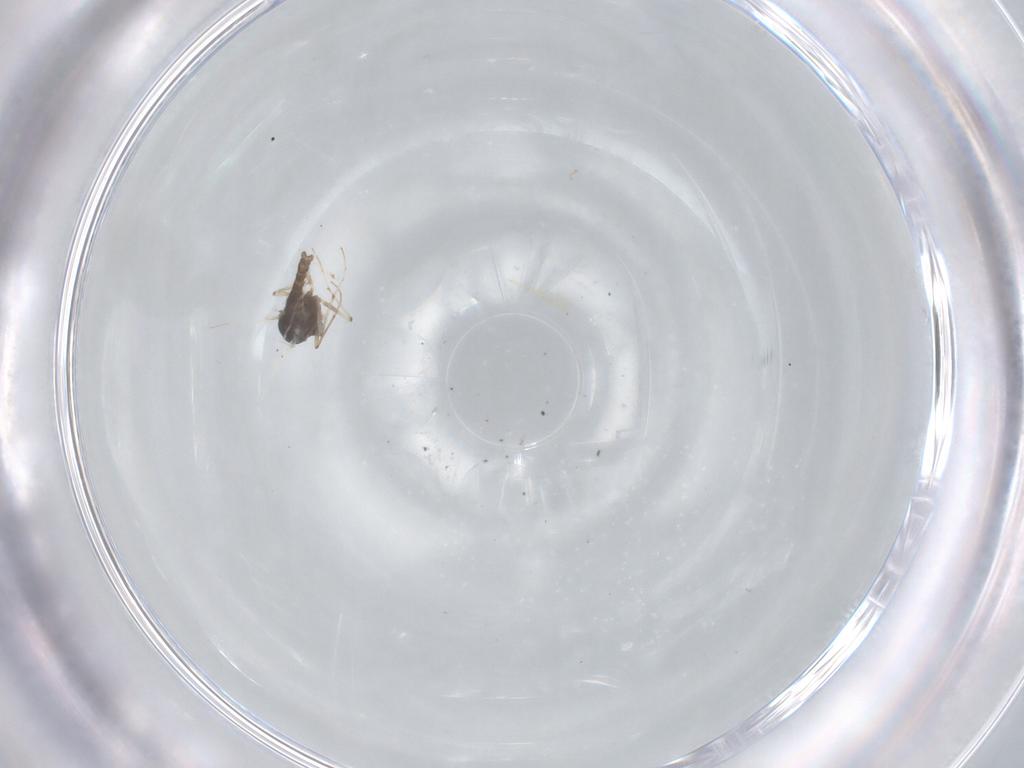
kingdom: Animalia
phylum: Arthropoda
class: Insecta
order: Diptera
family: Chironomidae
